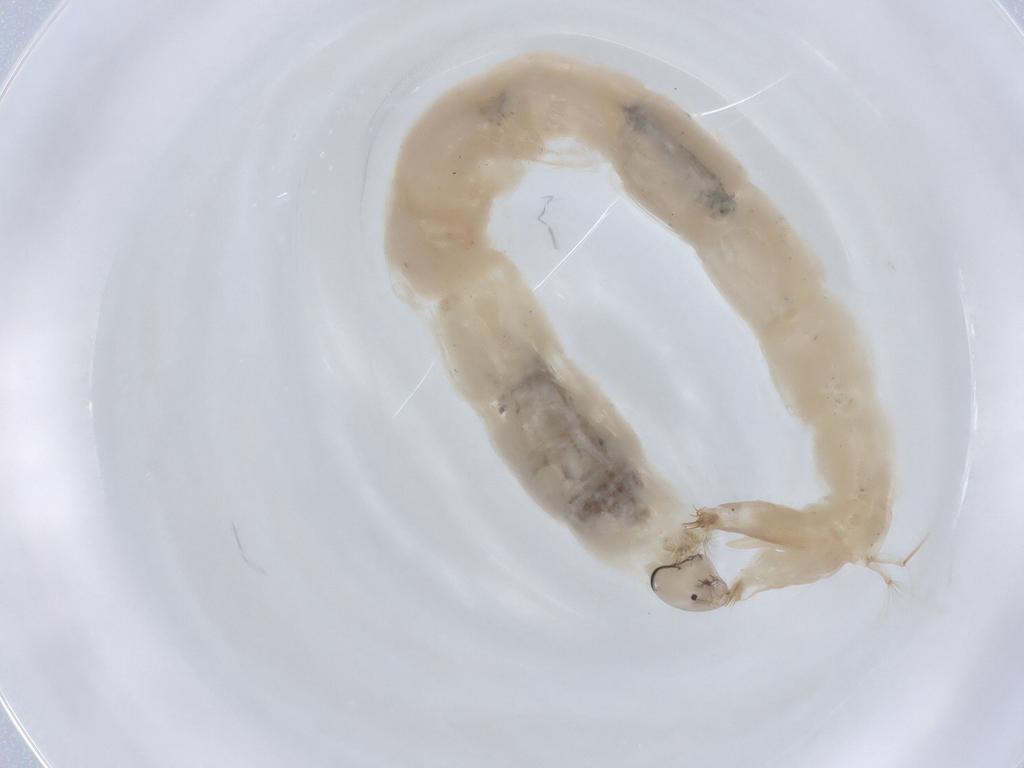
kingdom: Animalia
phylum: Arthropoda
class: Insecta
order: Diptera
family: Chironomidae
